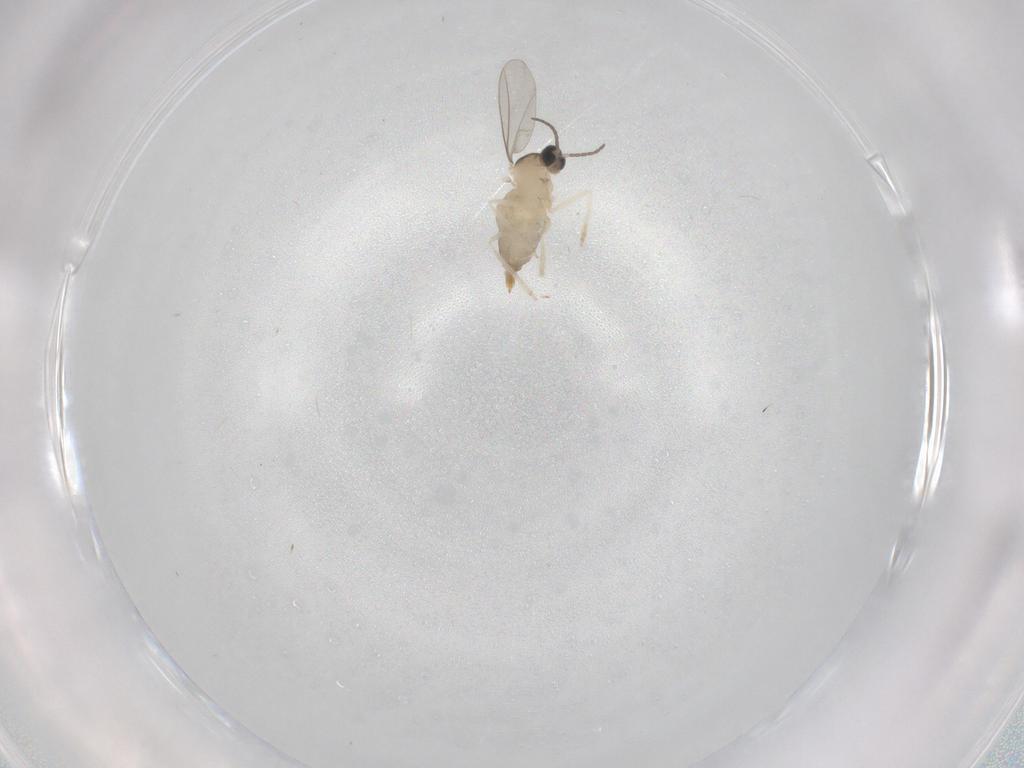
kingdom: Animalia
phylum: Arthropoda
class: Insecta
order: Diptera
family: Cecidomyiidae
